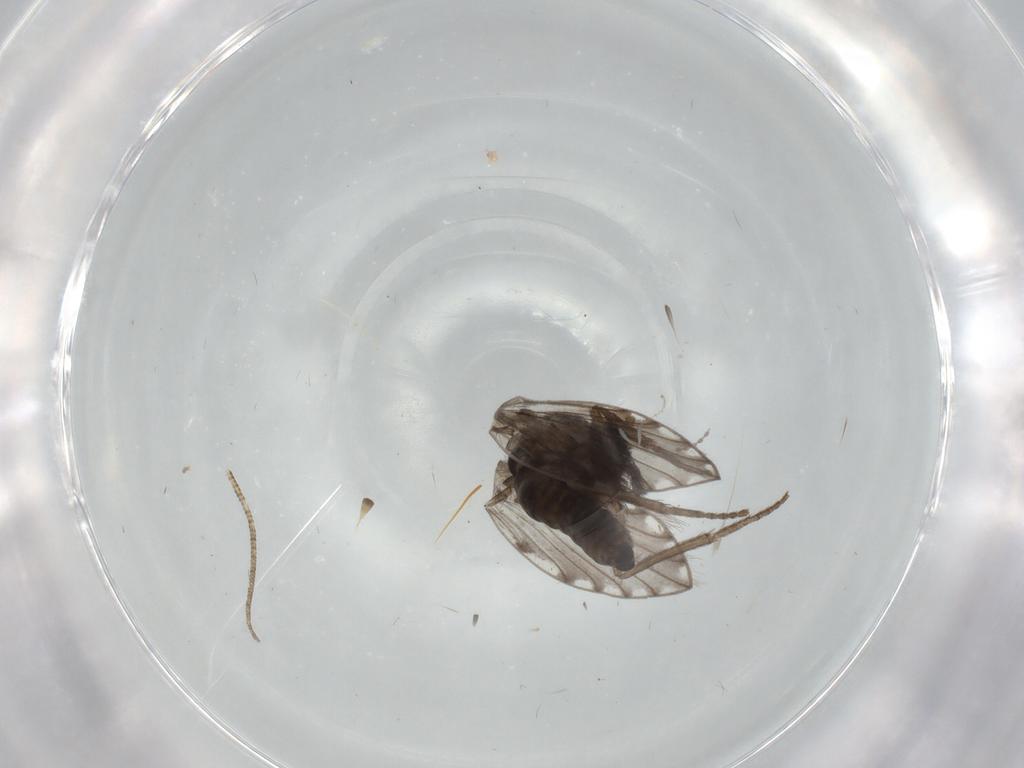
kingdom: Animalia
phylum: Arthropoda
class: Insecta
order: Diptera
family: Psychodidae
